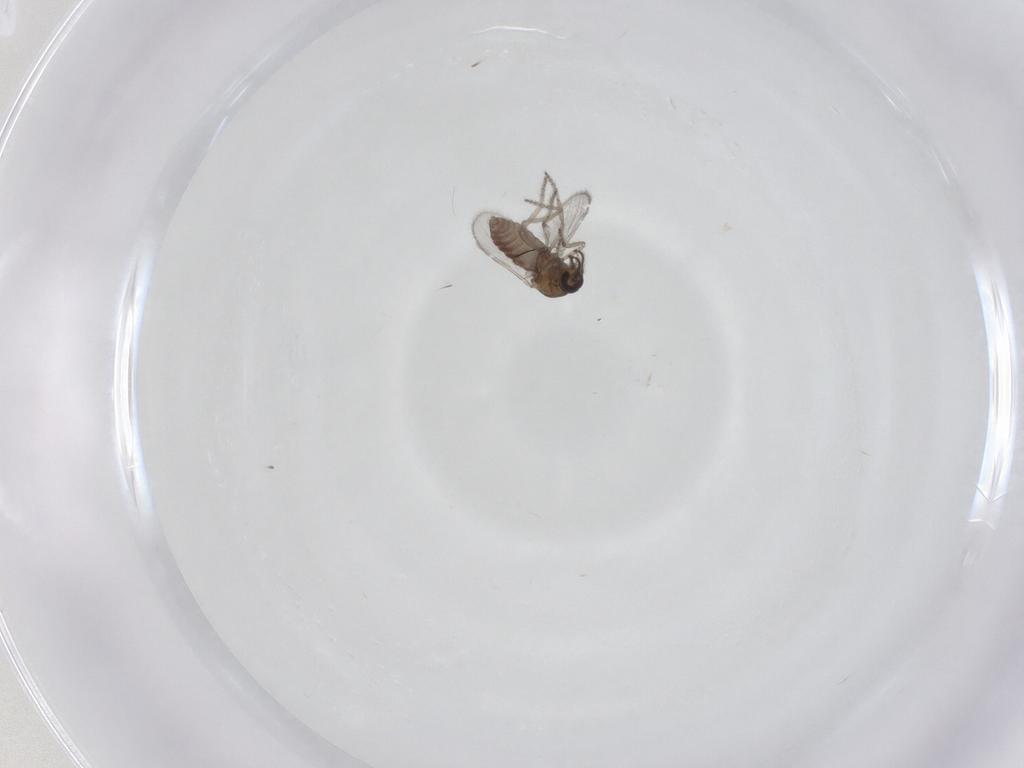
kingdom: Animalia
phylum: Arthropoda
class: Insecta
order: Diptera
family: Ceratopogonidae
